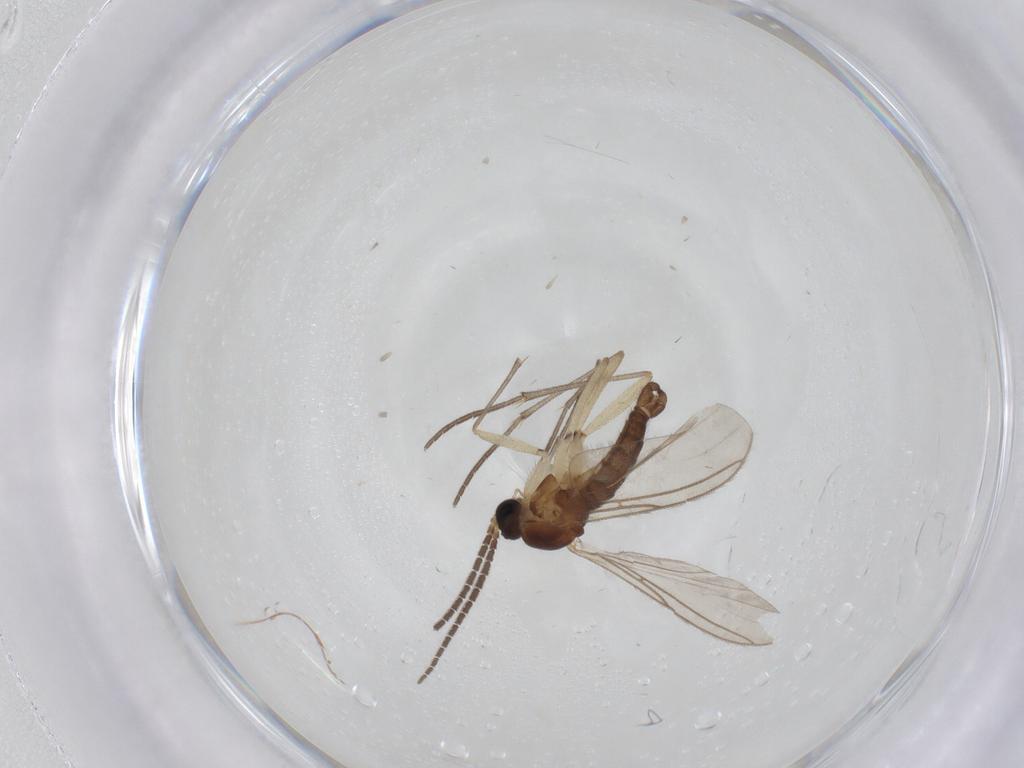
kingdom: Animalia
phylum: Arthropoda
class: Insecta
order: Diptera
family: Sciaridae
